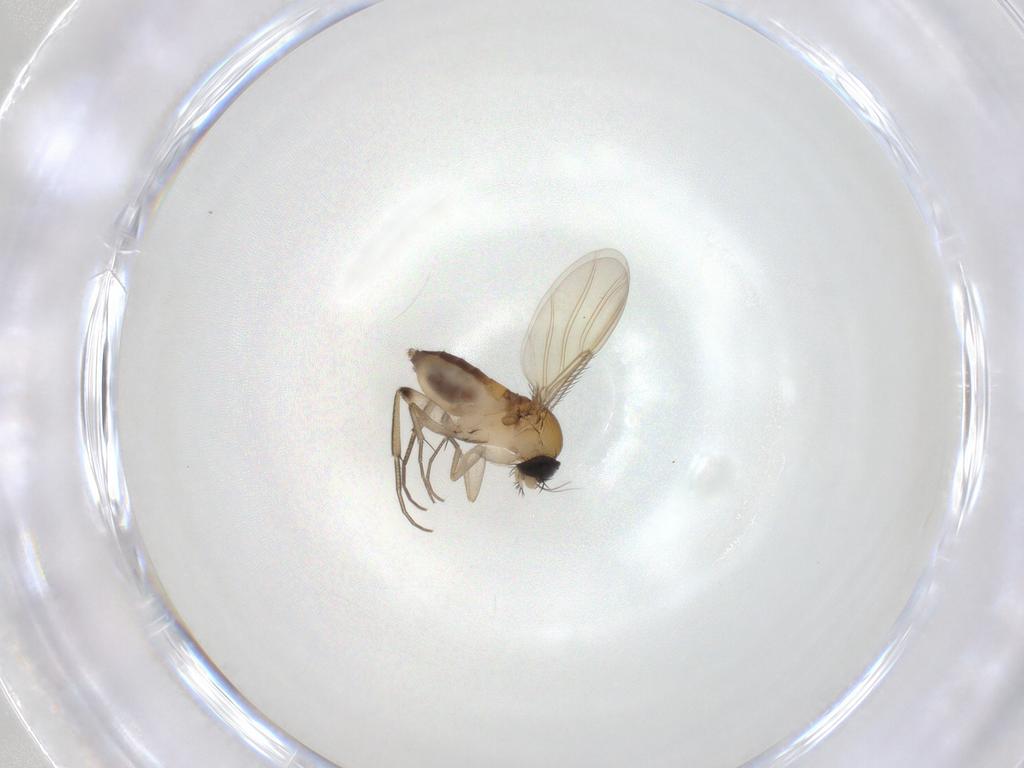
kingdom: Animalia
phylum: Arthropoda
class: Insecta
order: Diptera
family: Phoridae
